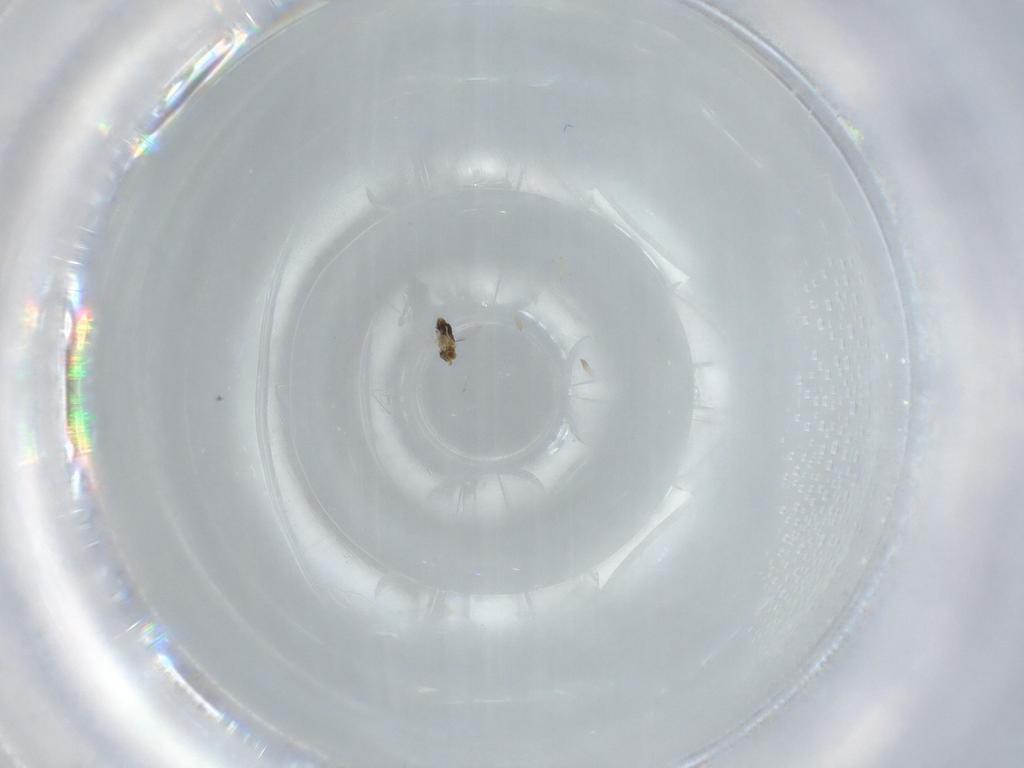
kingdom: Animalia
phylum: Arthropoda
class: Insecta
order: Hymenoptera
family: Aphelinidae
